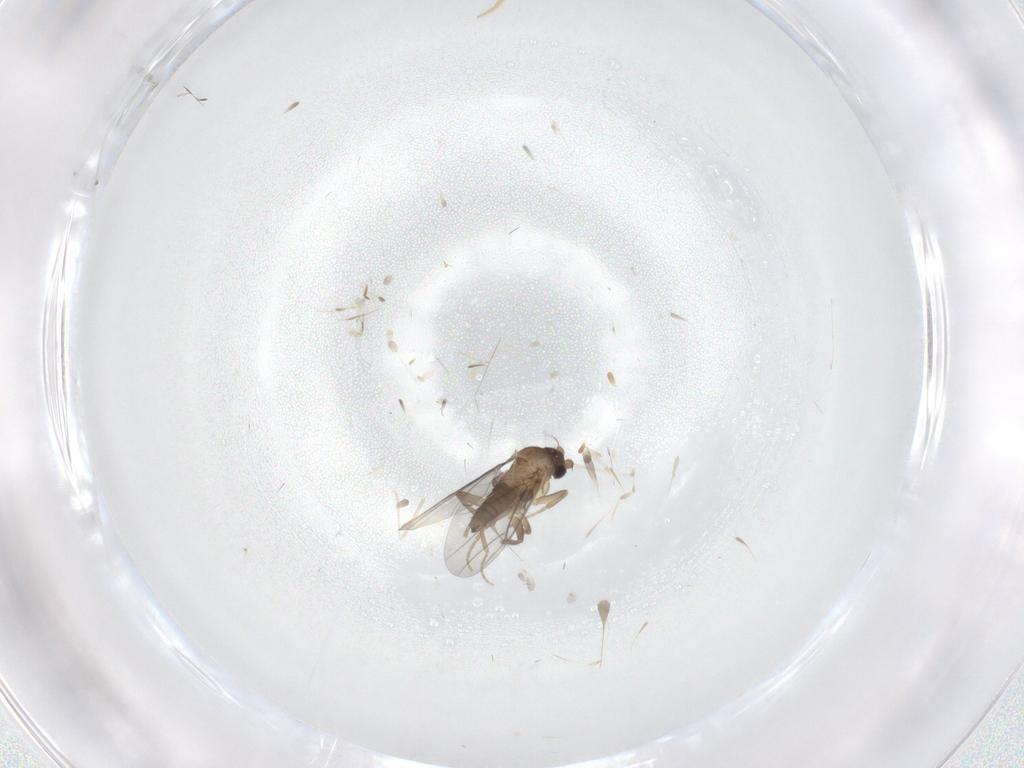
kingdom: Animalia
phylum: Arthropoda
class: Insecta
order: Diptera
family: Cecidomyiidae
